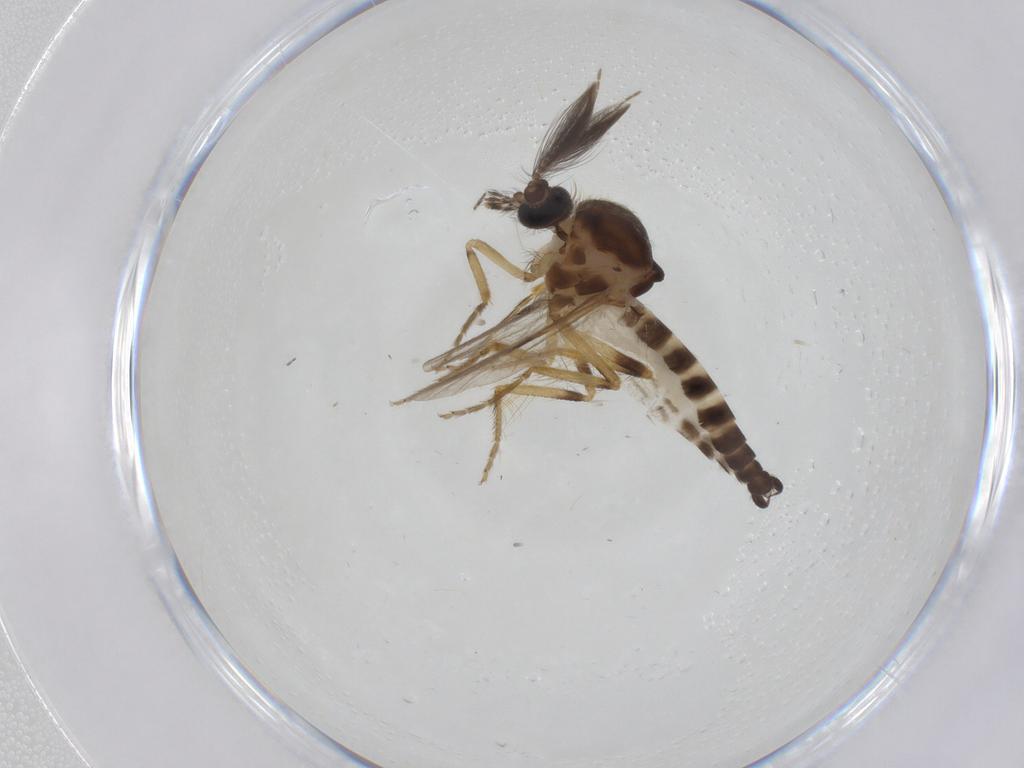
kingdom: Animalia
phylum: Arthropoda
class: Insecta
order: Diptera
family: Ceratopogonidae
